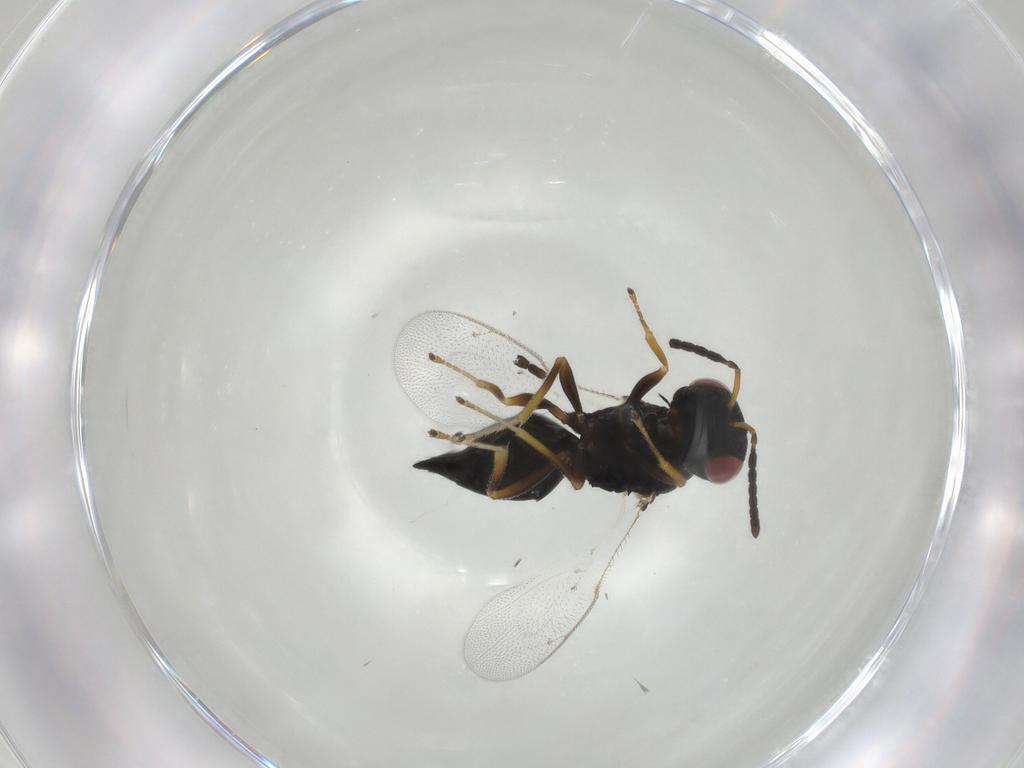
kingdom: Animalia
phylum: Arthropoda
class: Insecta
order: Hymenoptera
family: Pteromalidae
